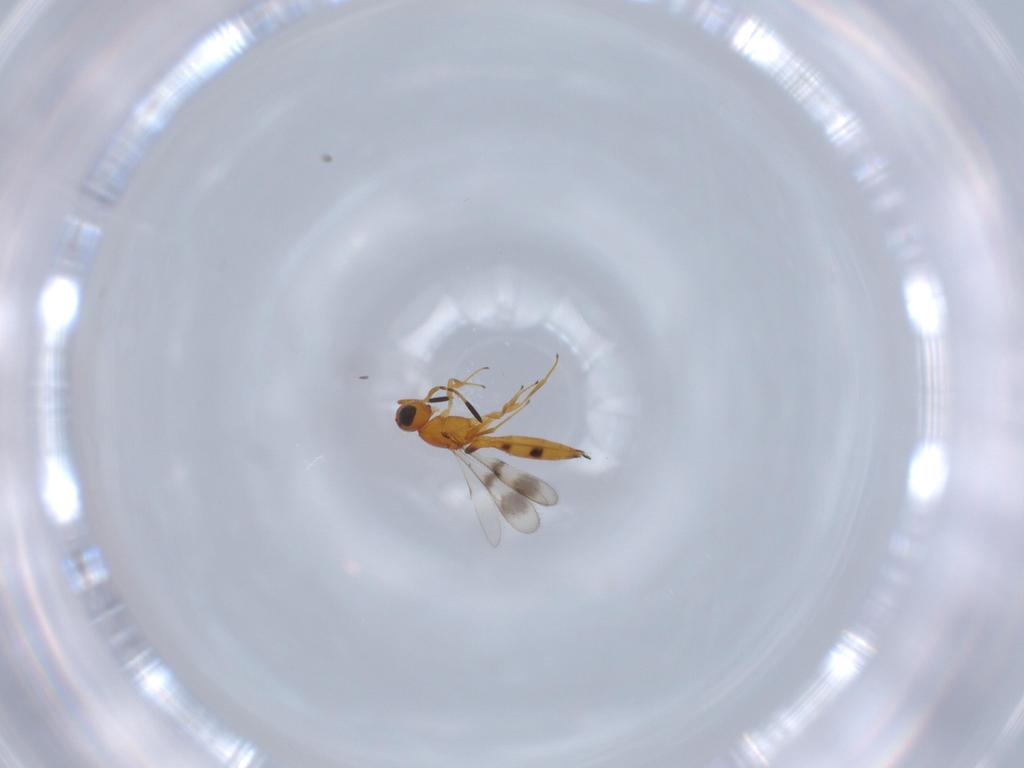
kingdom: Animalia
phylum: Arthropoda
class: Insecta
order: Hymenoptera
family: Scelionidae
